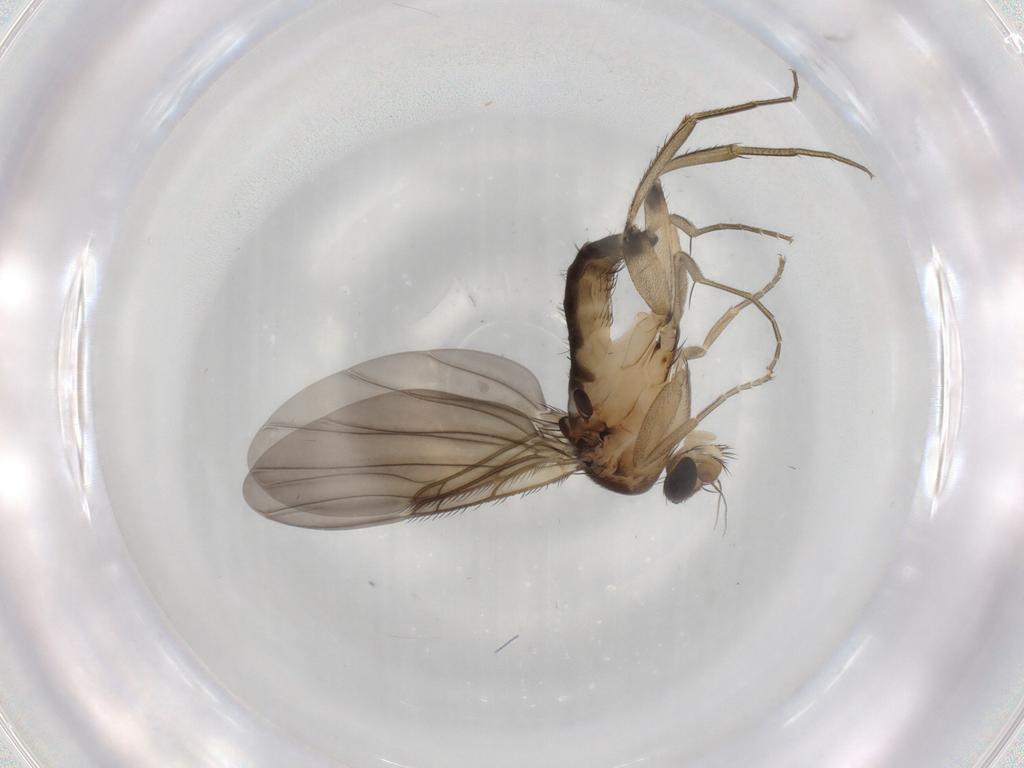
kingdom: Animalia
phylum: Arthropoda
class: Insecta
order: Diptera
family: Phoridae
